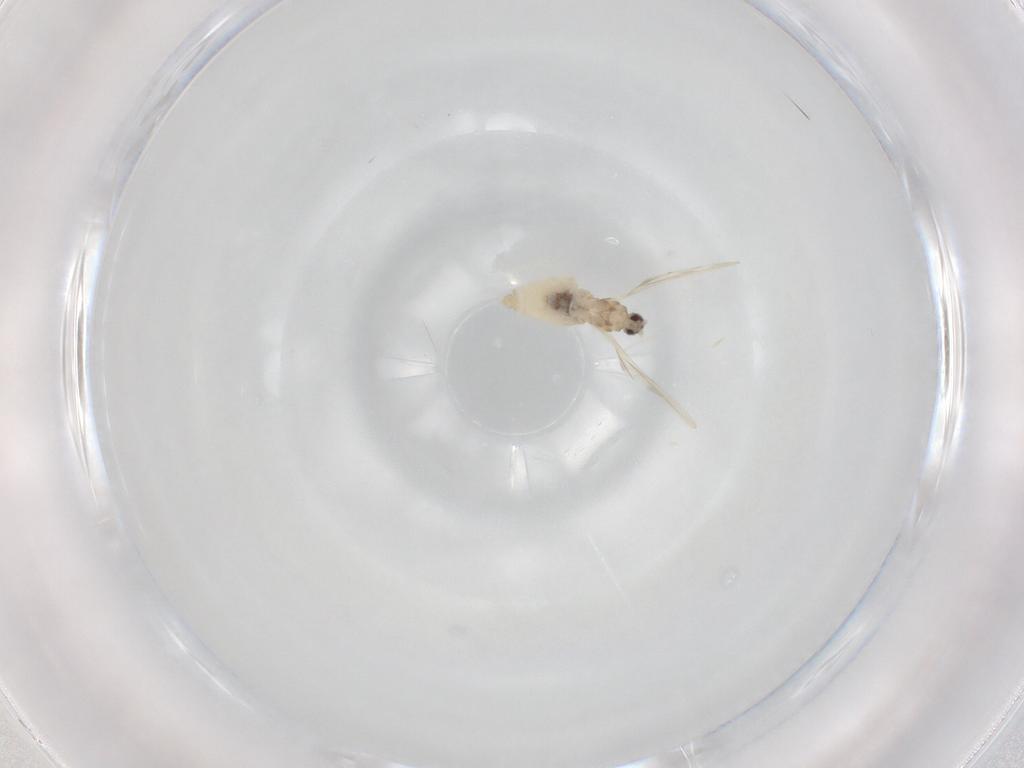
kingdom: Animalia
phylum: Arthropoda
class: Insecta
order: Diptera
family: Cecidomyiidae
